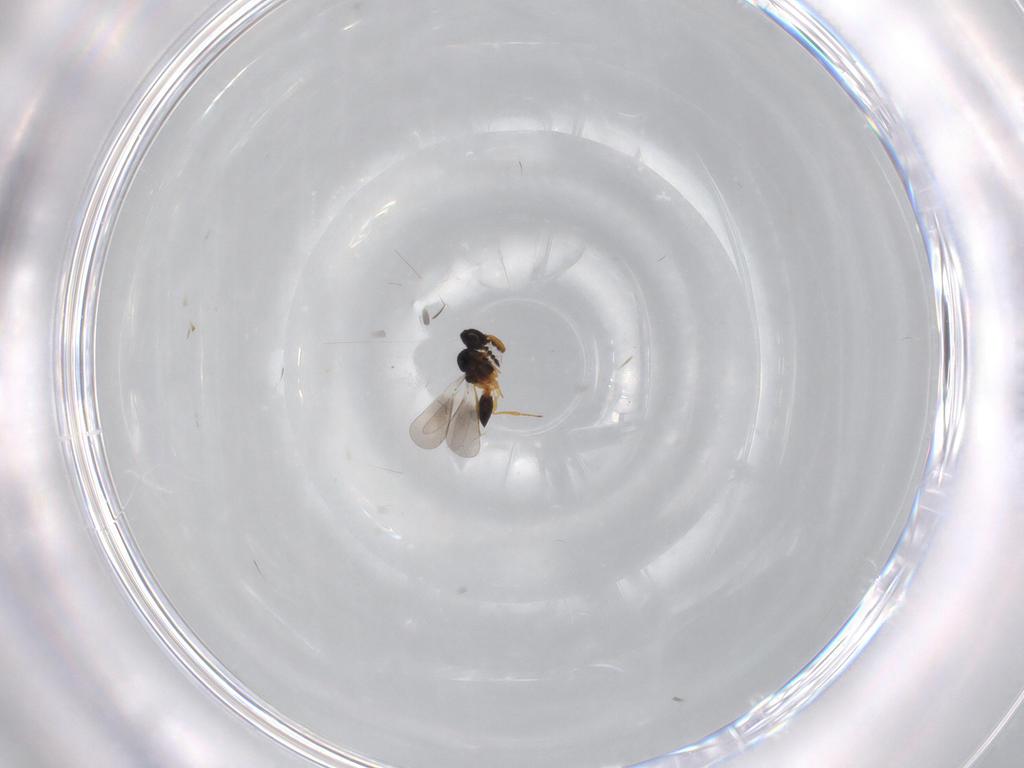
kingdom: Animalia
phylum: Arthropoda
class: Insecta
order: Hymenoptera
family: Platygastridae
